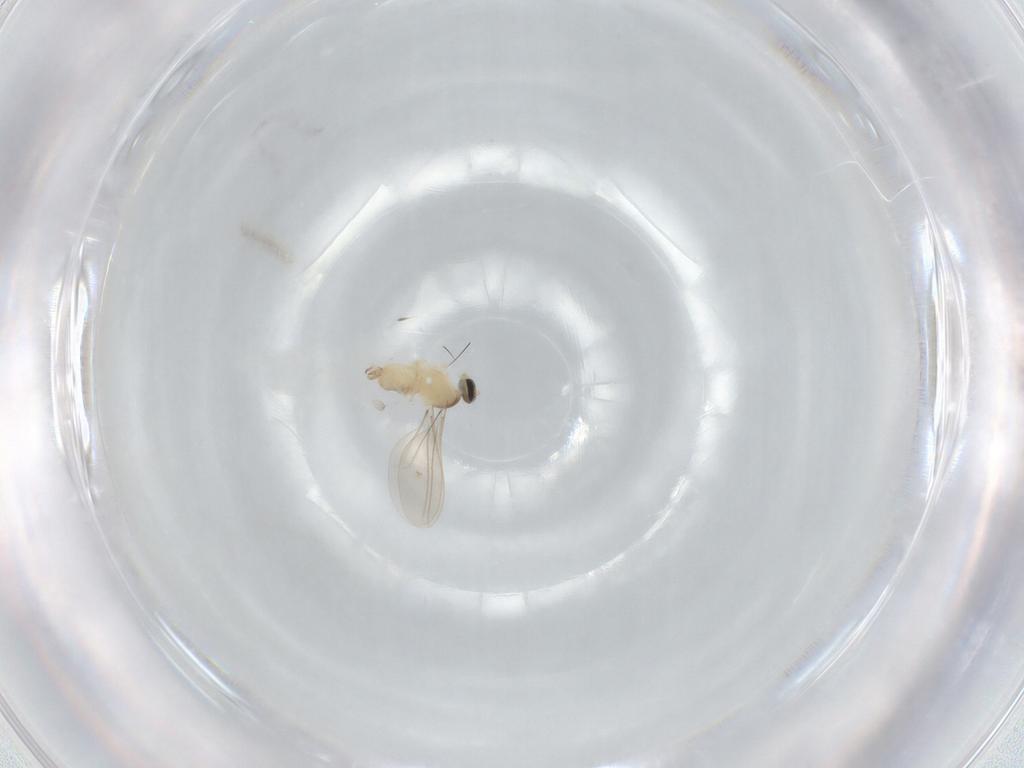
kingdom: Animalia
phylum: Arthropoda
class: Insecta
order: Diptera
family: Cecidomyiidae
